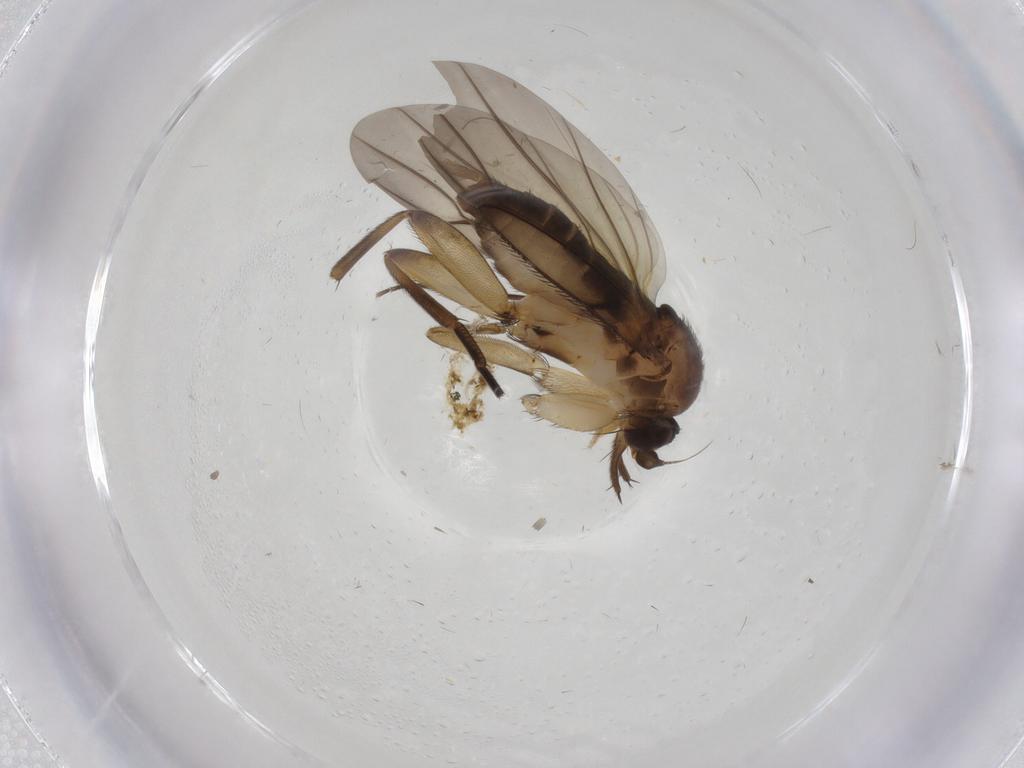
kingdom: Animalia
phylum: Arthropoda
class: Insecta
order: Diptera
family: Phoridae
